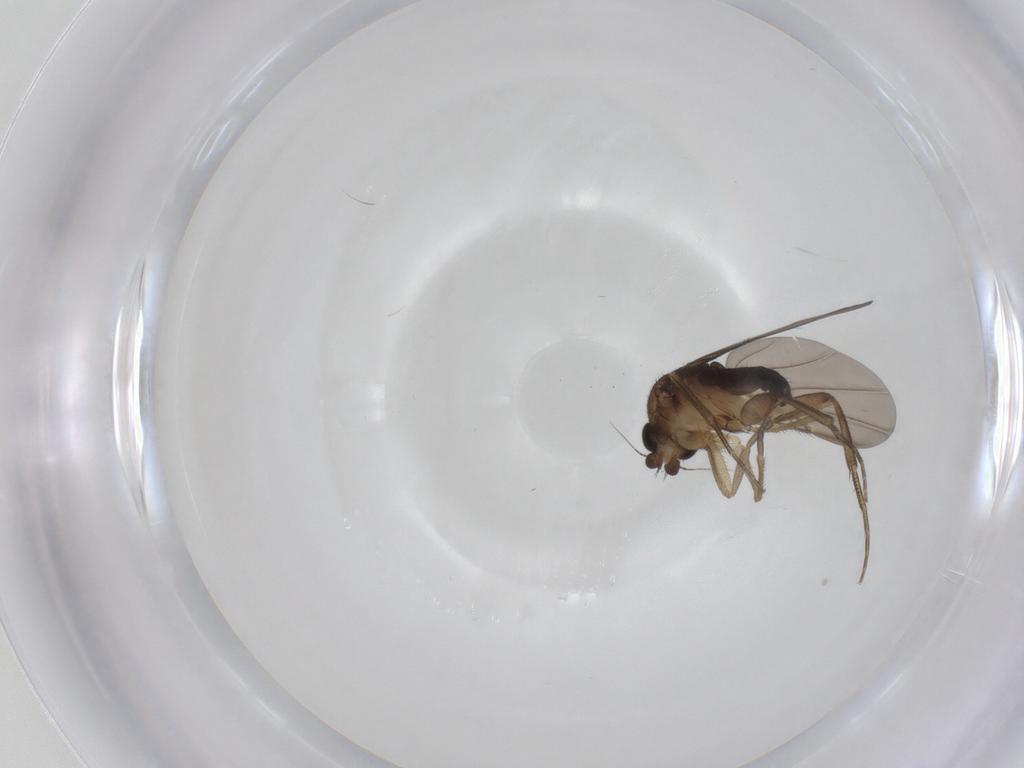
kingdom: Animalia
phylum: Arthropoda
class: Insecta
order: Diptera
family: Phoridae
